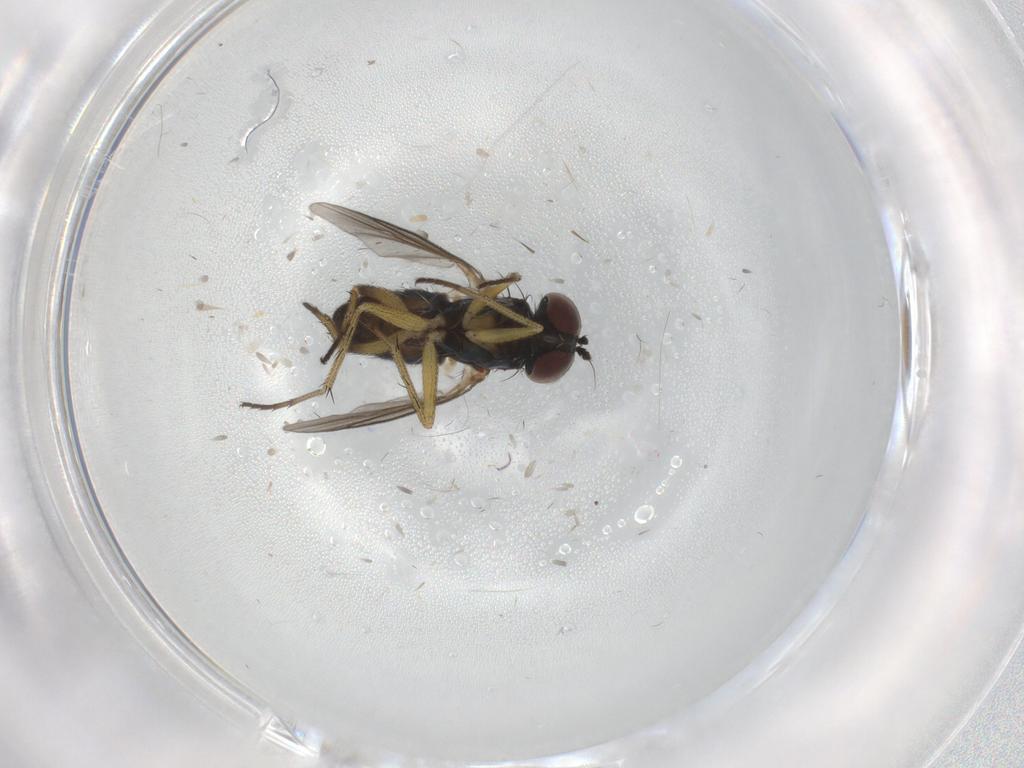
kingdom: Animalia
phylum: Arthropoda
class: Insecta
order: Diptera
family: Dolichopodidae
